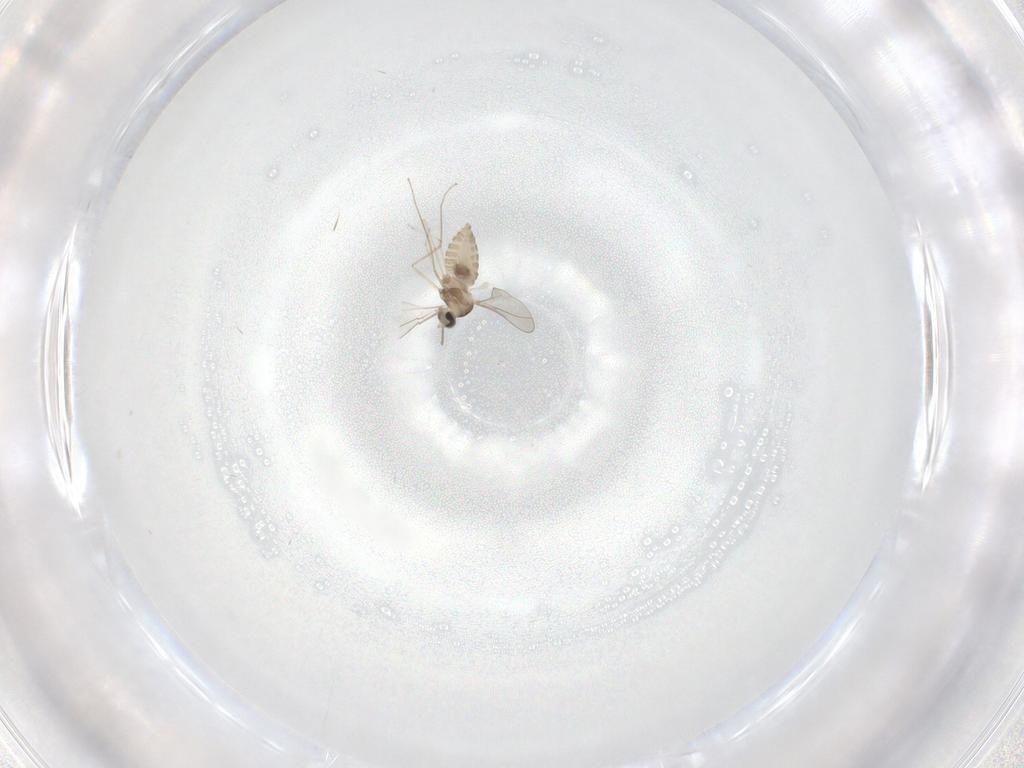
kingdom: Animalia
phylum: Arthropoda
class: Insecta
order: Diptera
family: Cecidomyiidae
